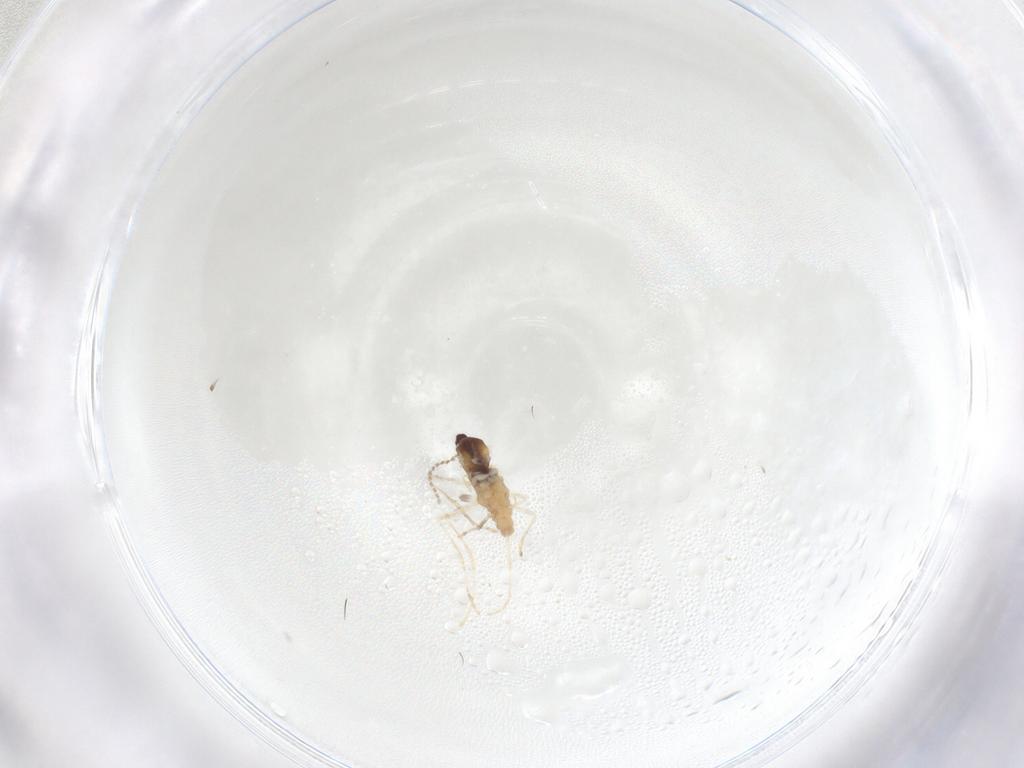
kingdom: Animalia
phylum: Arthropoda
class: Insecta
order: Diptera
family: Cecidomyiidae
